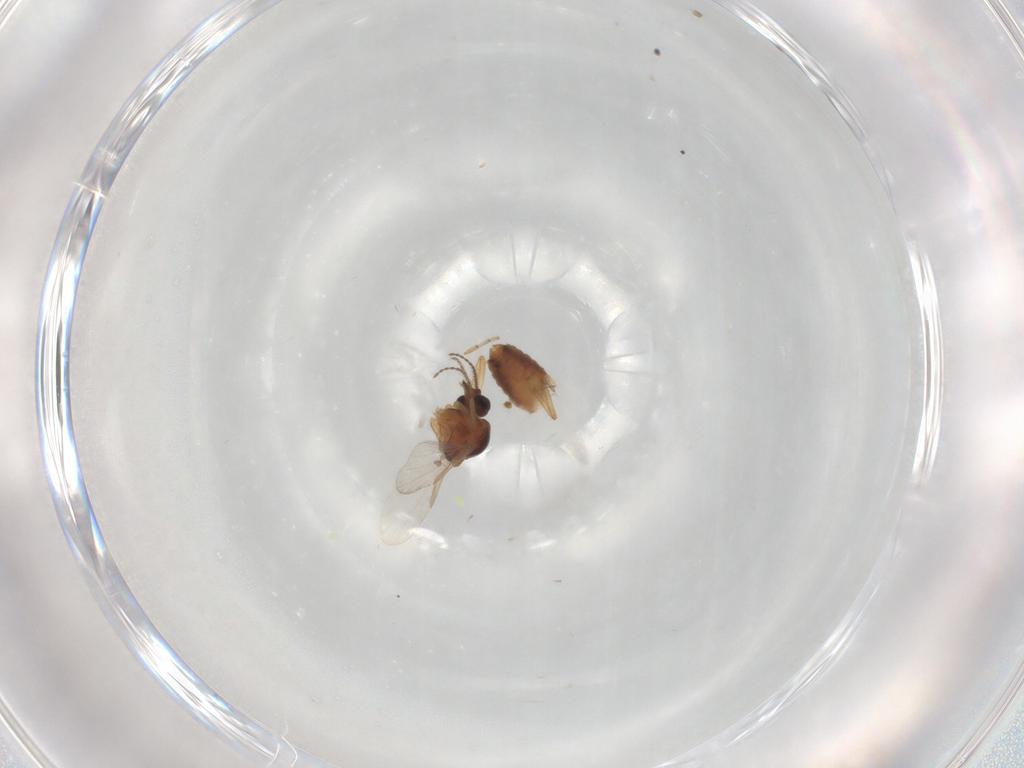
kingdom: Animalia
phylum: Arthropoda
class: Insecta
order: Diptera
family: Ceratopogonidae
